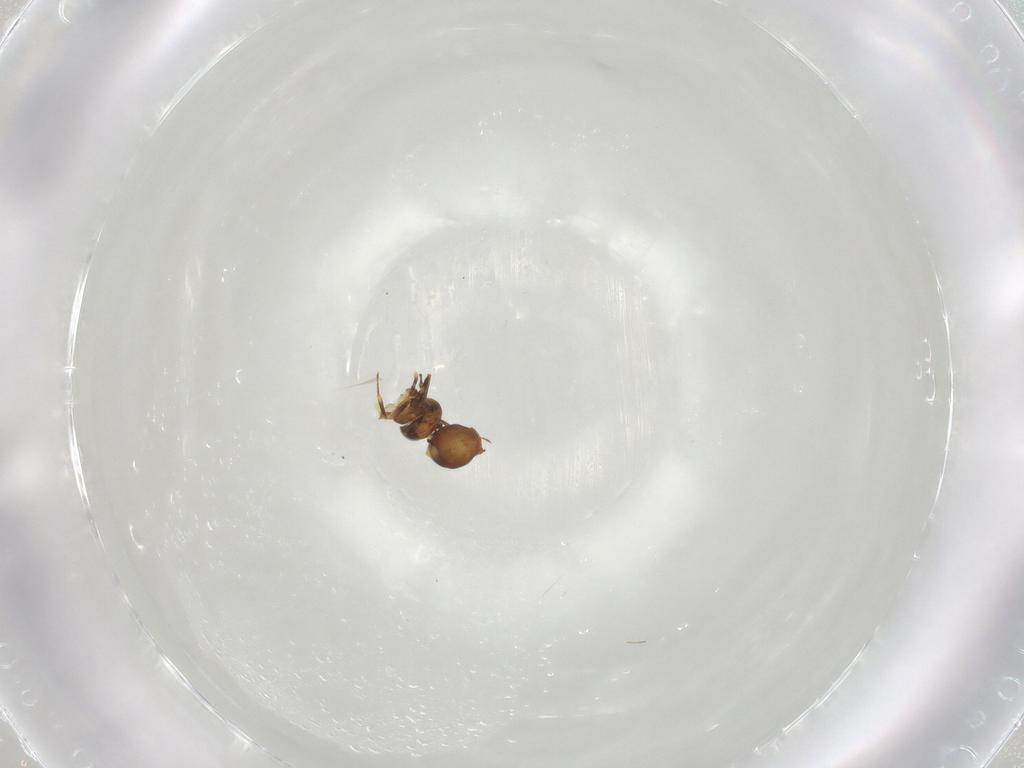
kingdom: Animalia
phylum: Arthropoda
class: Insecta
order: Hymenoptera
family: Scelionidae
